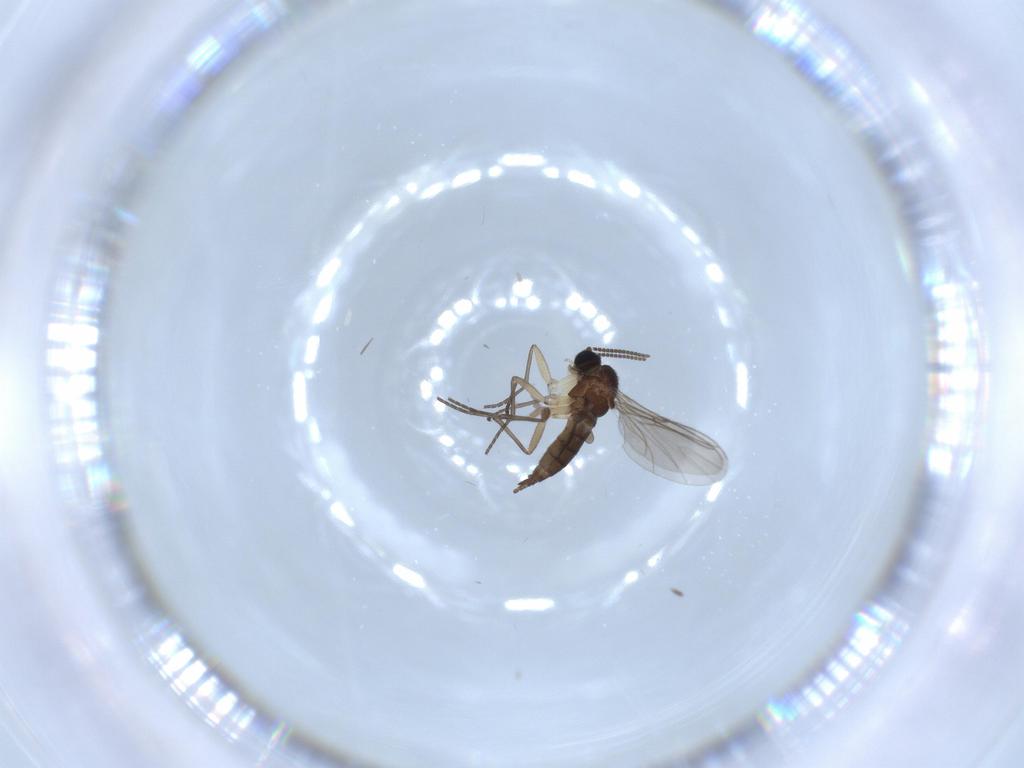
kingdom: Animalia
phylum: Arthropoda
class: Insecta
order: Diptera
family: Sciaridae
